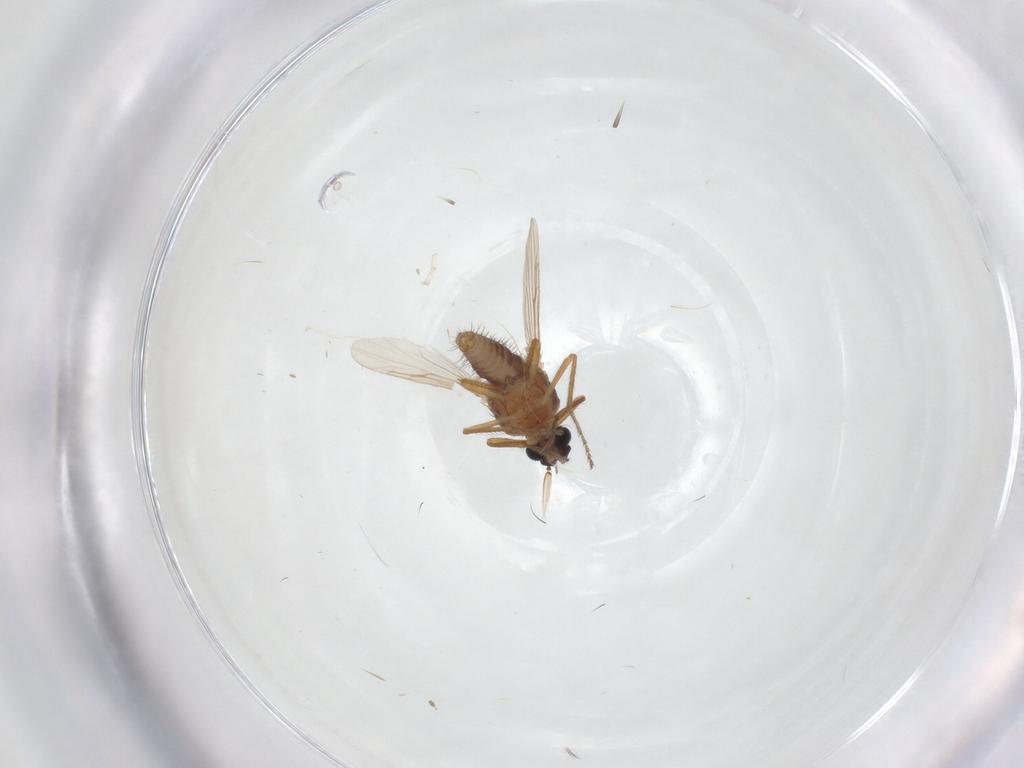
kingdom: Animalia
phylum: Arthropoda
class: Insecta
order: Diptera
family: Ceratopogonidae
